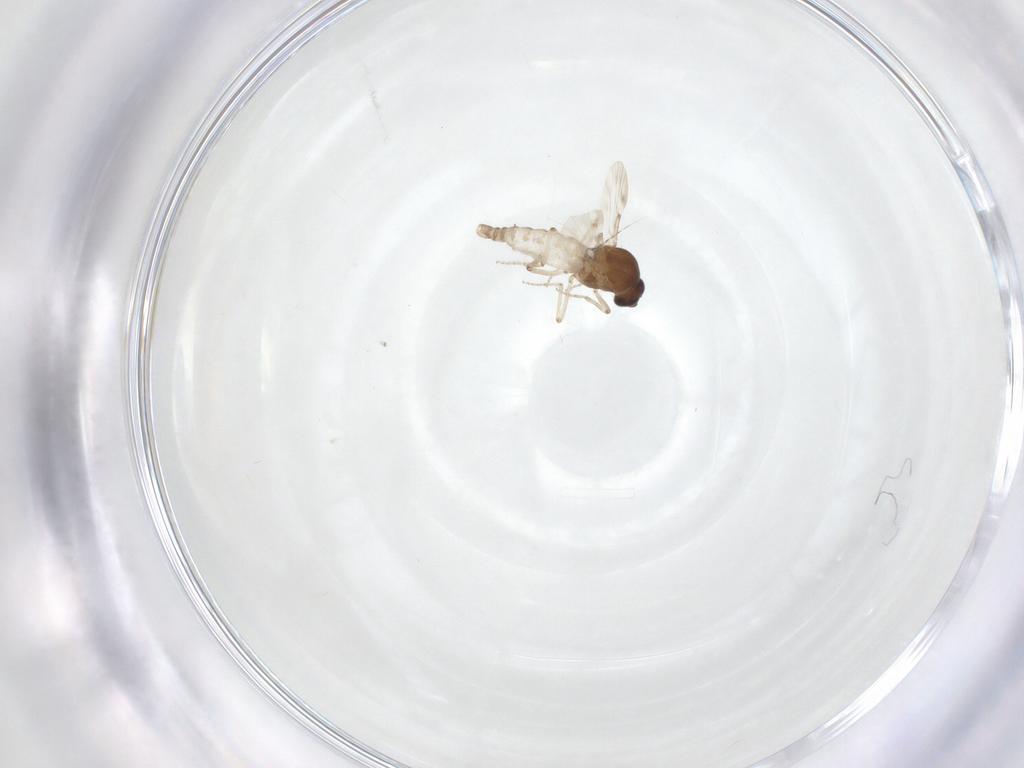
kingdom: Animalia
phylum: Arthropoda
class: Insecta
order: Diptera
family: Ceratopogonidae
